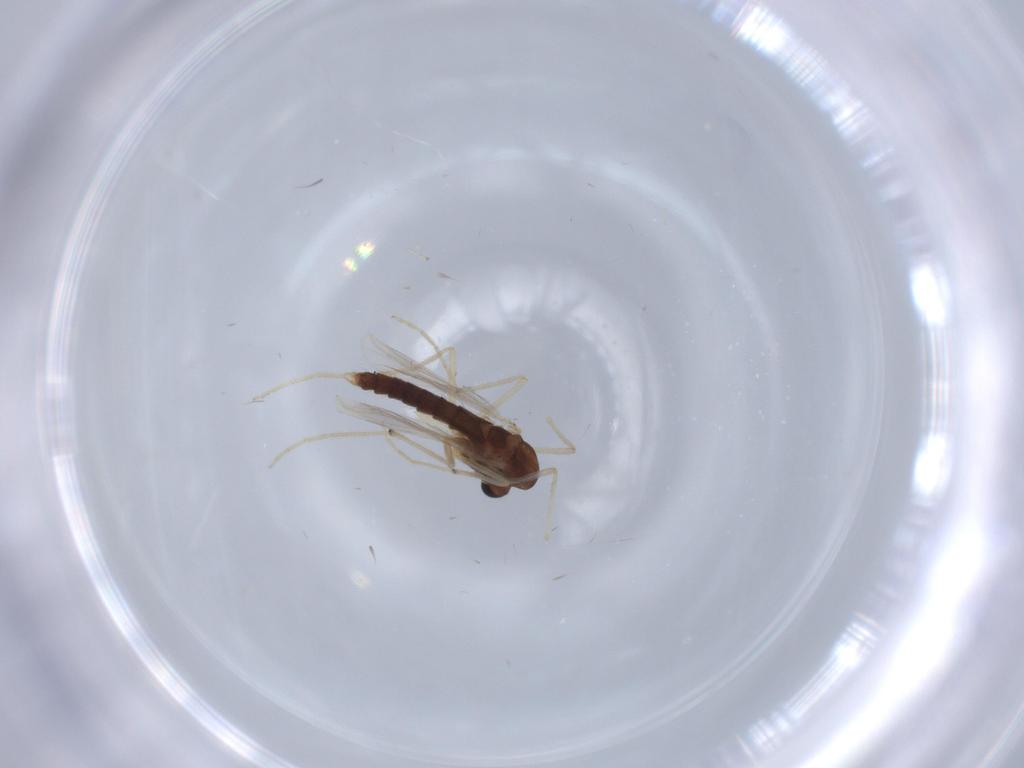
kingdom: Animalia
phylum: Arthropoda
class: Insecta
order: Diptera
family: Chironomidae
